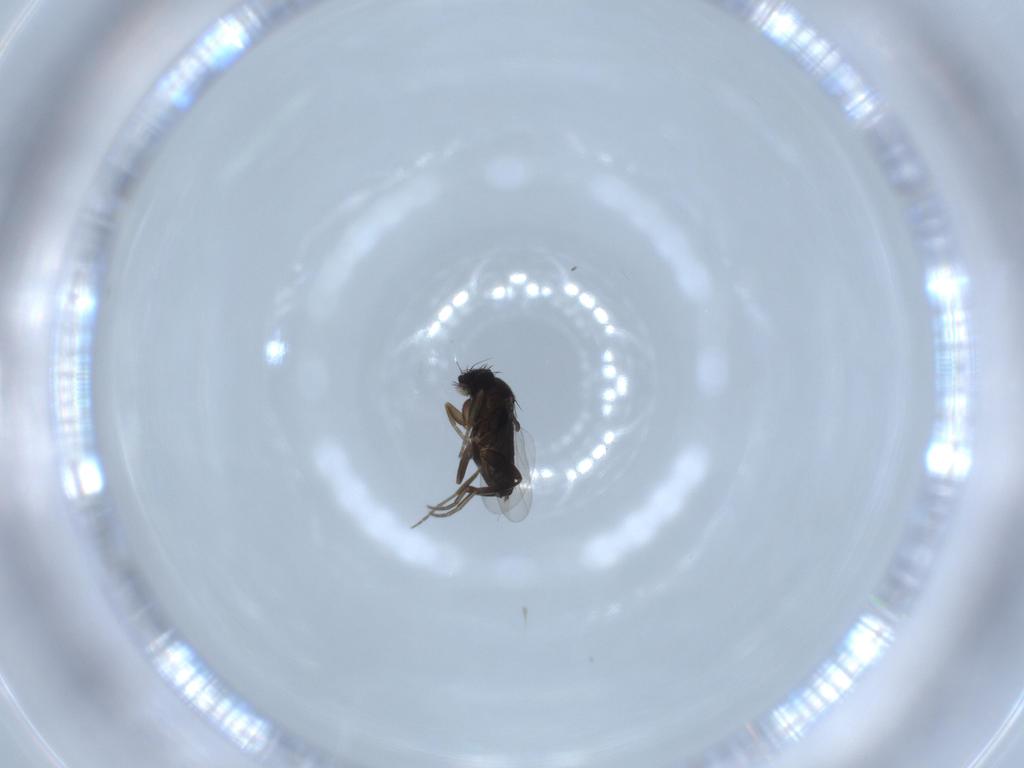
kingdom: Animalia
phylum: Arthropoda
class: Insecta
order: Diptera
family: Phoridae
